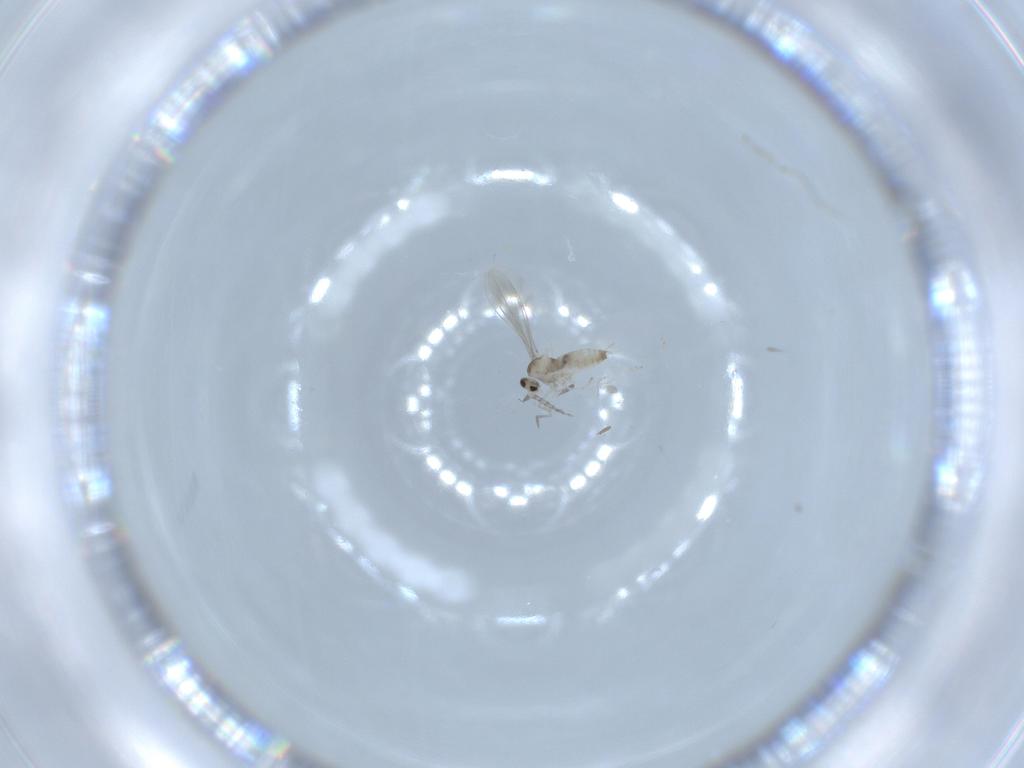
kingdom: Animalia
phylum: Arthropoda
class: Insecta
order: Diptera
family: Cecidomyiidae
